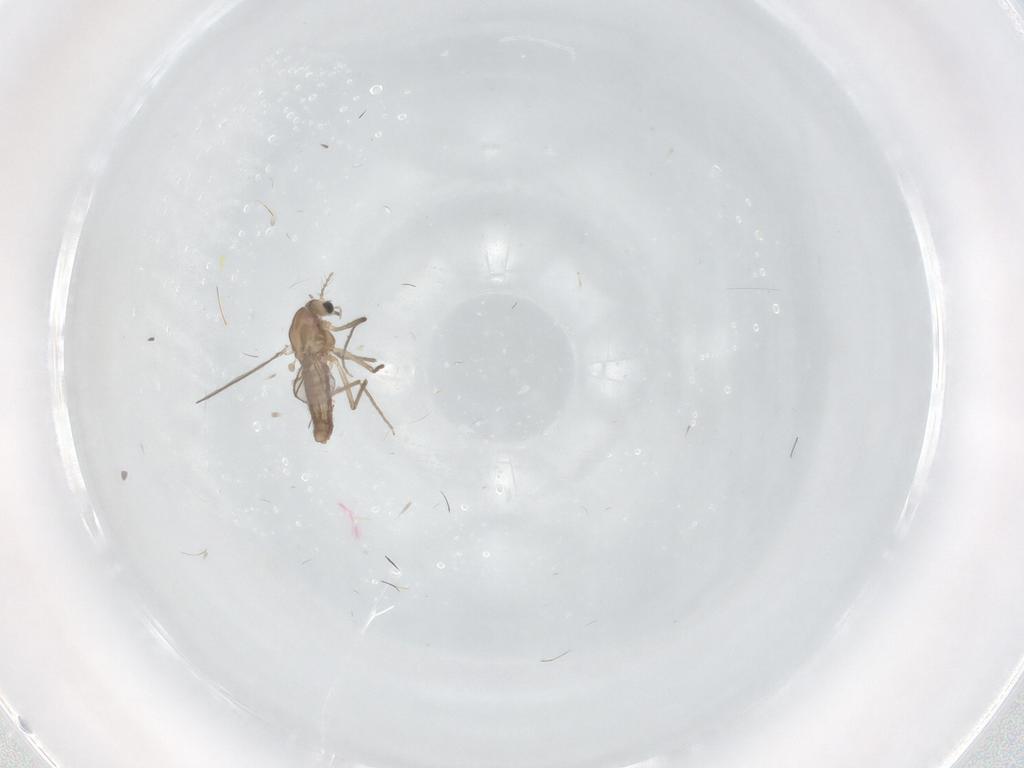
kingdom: Animalia
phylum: Arthropoda
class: Insecta
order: Diptera
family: Chironomidae
